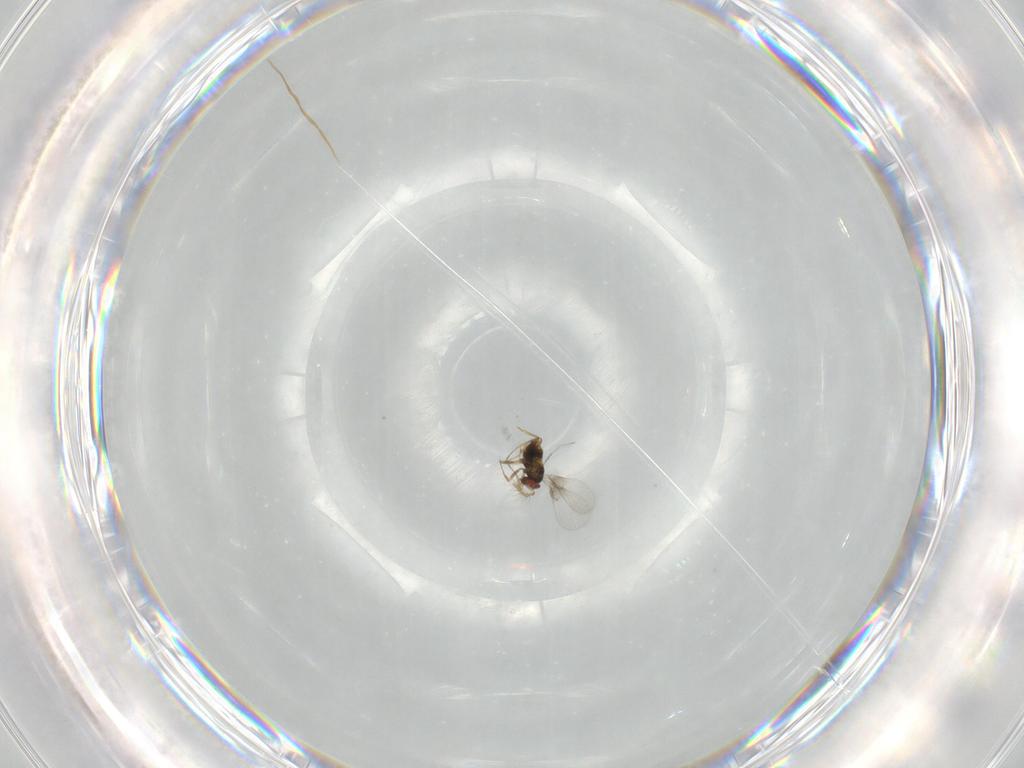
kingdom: Animalia
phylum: Arthropoda
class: Insecta
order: Hymenoptera
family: Trichogrammatidae
